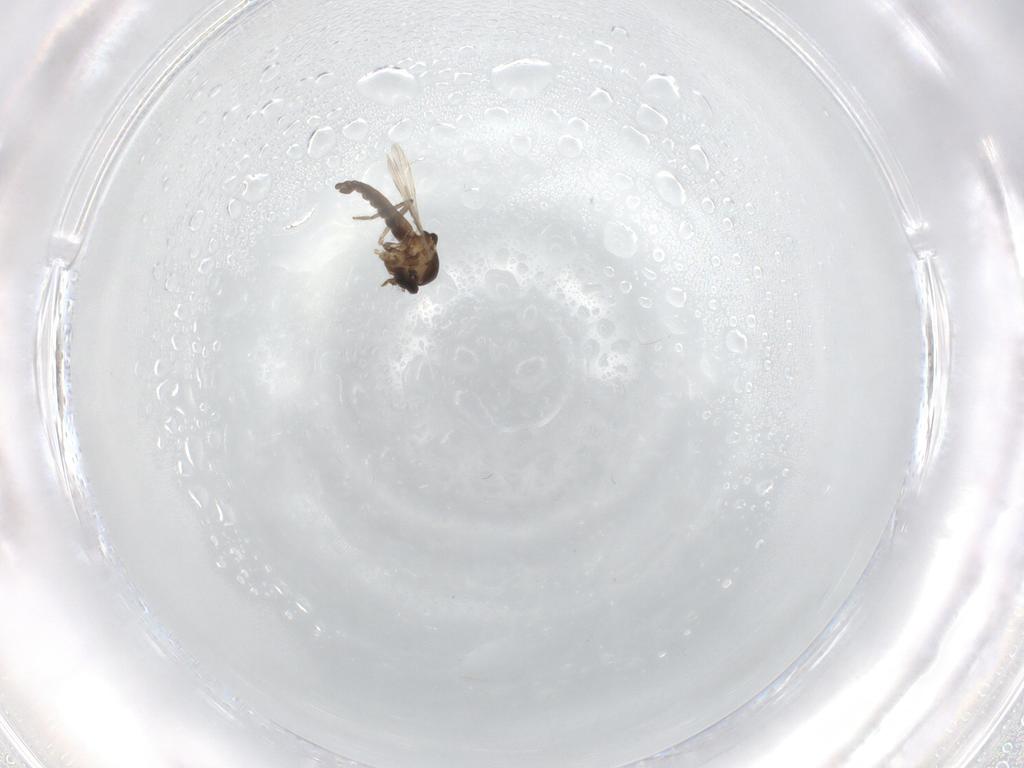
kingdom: Animalia
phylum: Arthropoda
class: Insecta
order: Diptera
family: Ceratopogonidae
